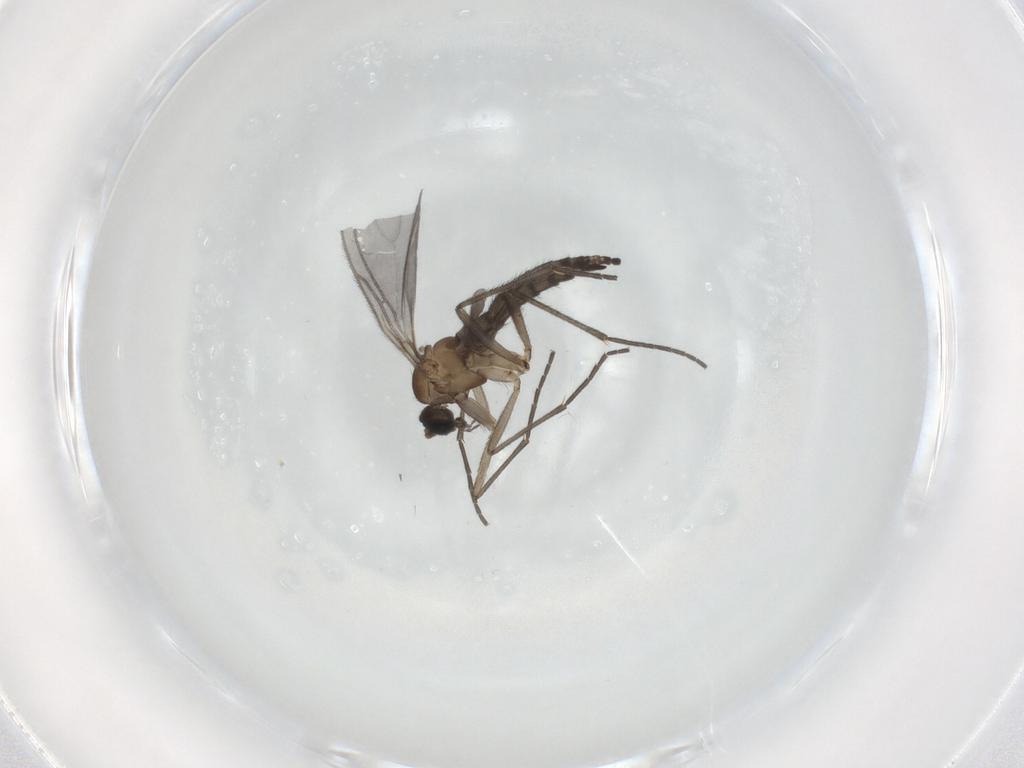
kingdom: Animalia
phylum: Arthropoda
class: Insecta
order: Diptera
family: Sciaridae
